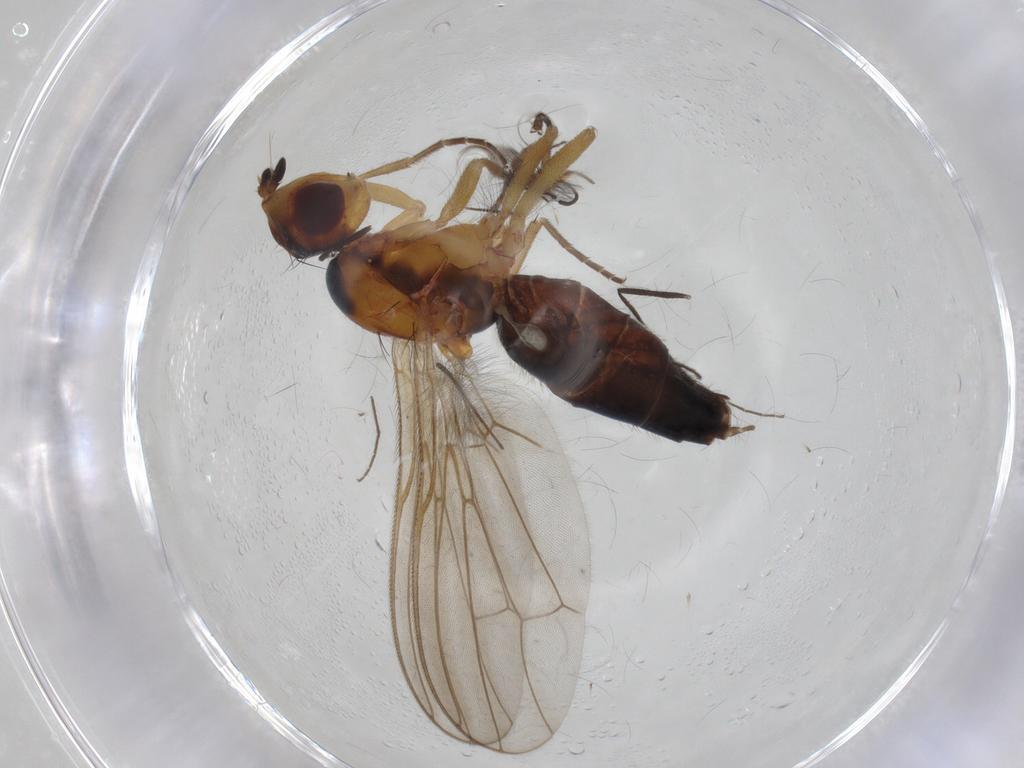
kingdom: Animalia
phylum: Arthropoda
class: Insecta
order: Diptera
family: Chironomidae
